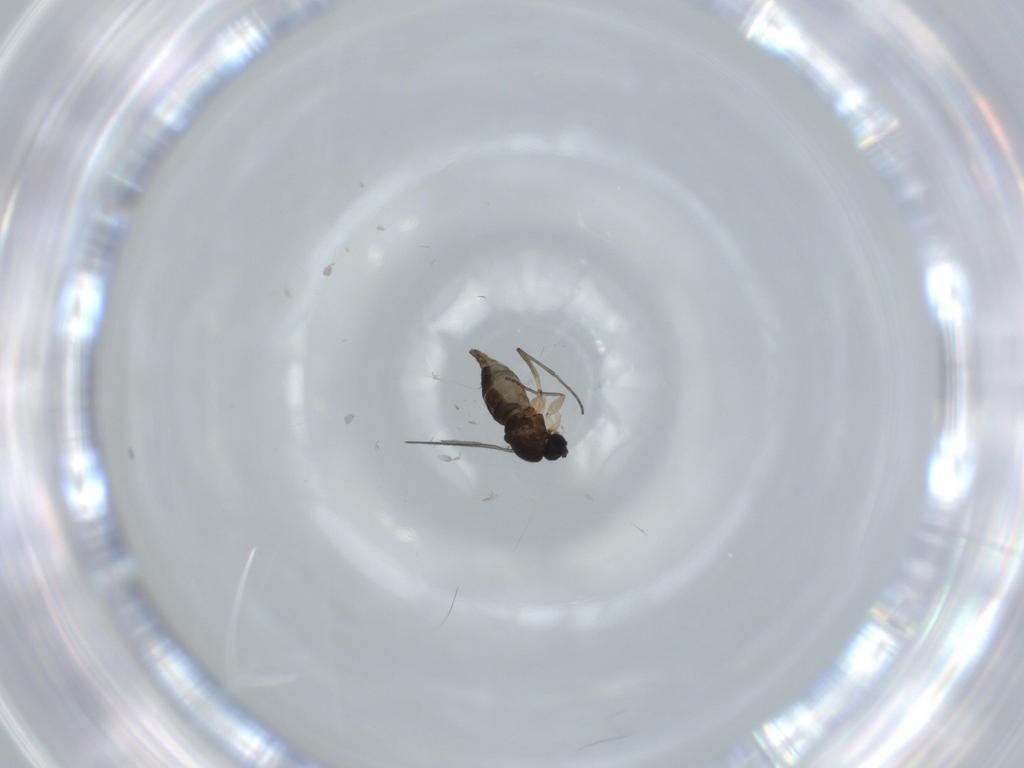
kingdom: Animalia
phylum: Arthropoda
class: Insecta
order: Diptera
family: Sciaridae
